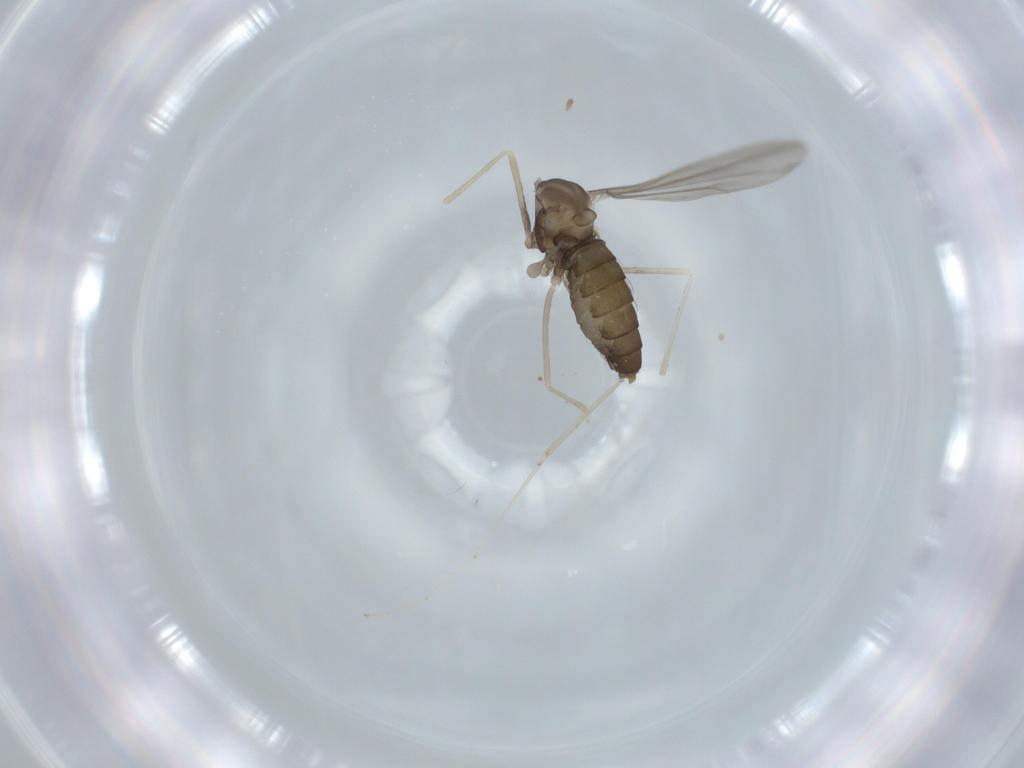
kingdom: Animalia
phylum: Arthropoda
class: Insecta
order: Diptera
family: Cecidomyiidae
